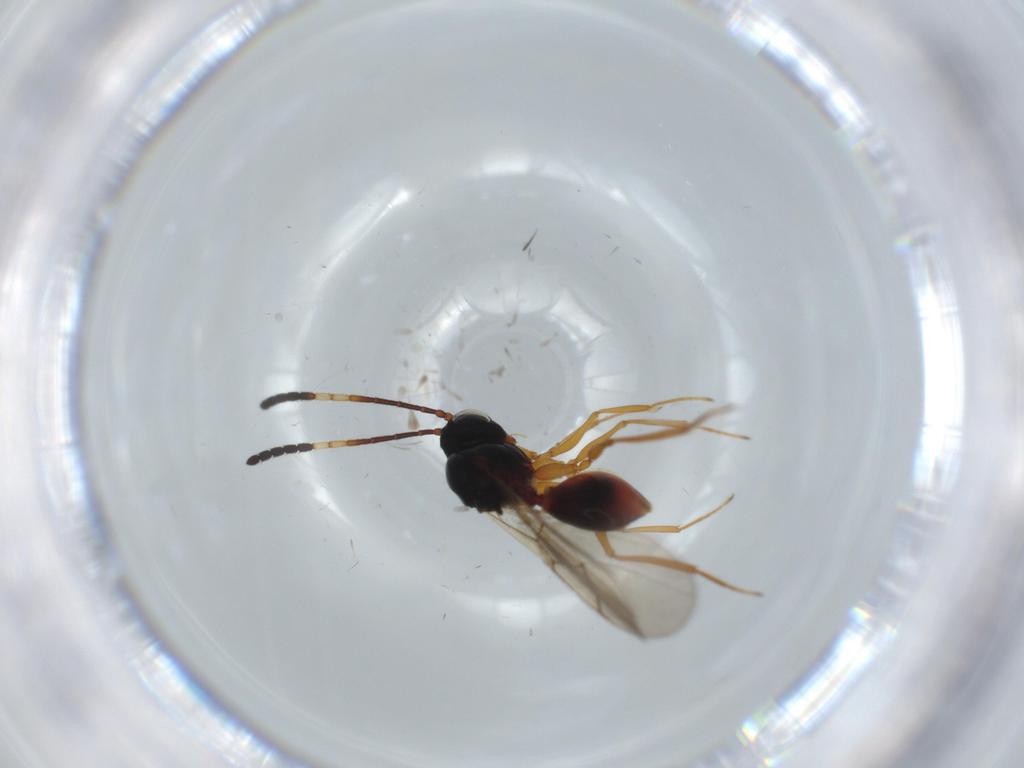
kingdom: Animalia
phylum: Arthropoda
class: Insecta
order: Hymenoptera
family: Figitidae
